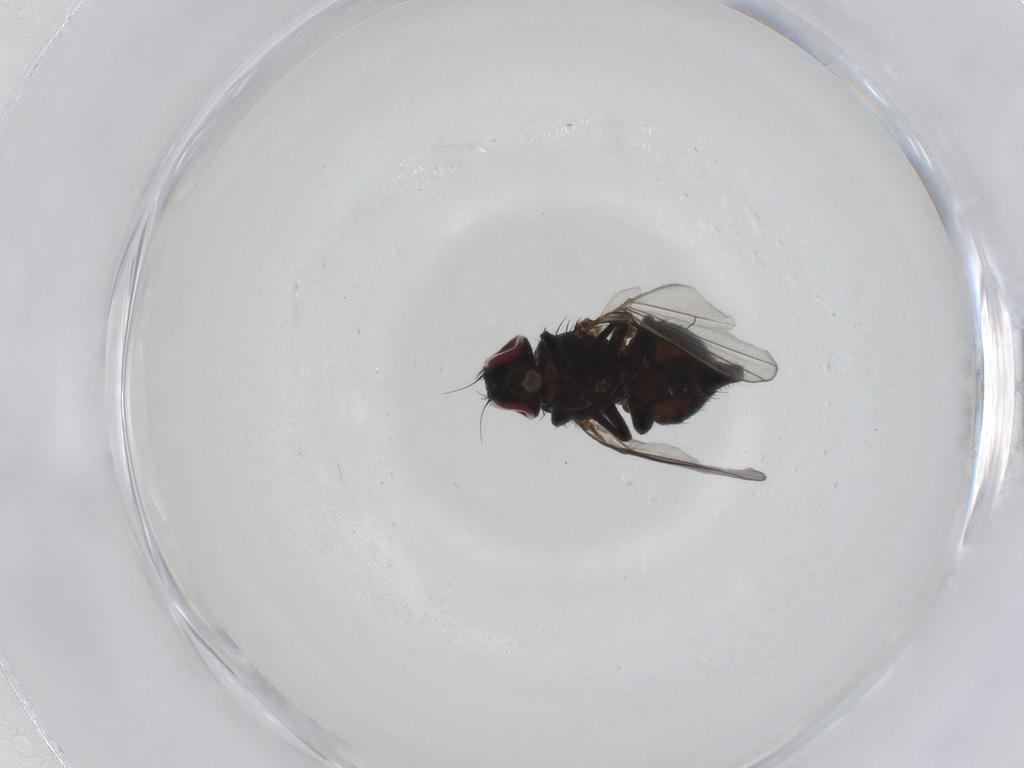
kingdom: Animalia
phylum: Arthropoda
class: Insecta
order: Diptera
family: Agromyzidae
